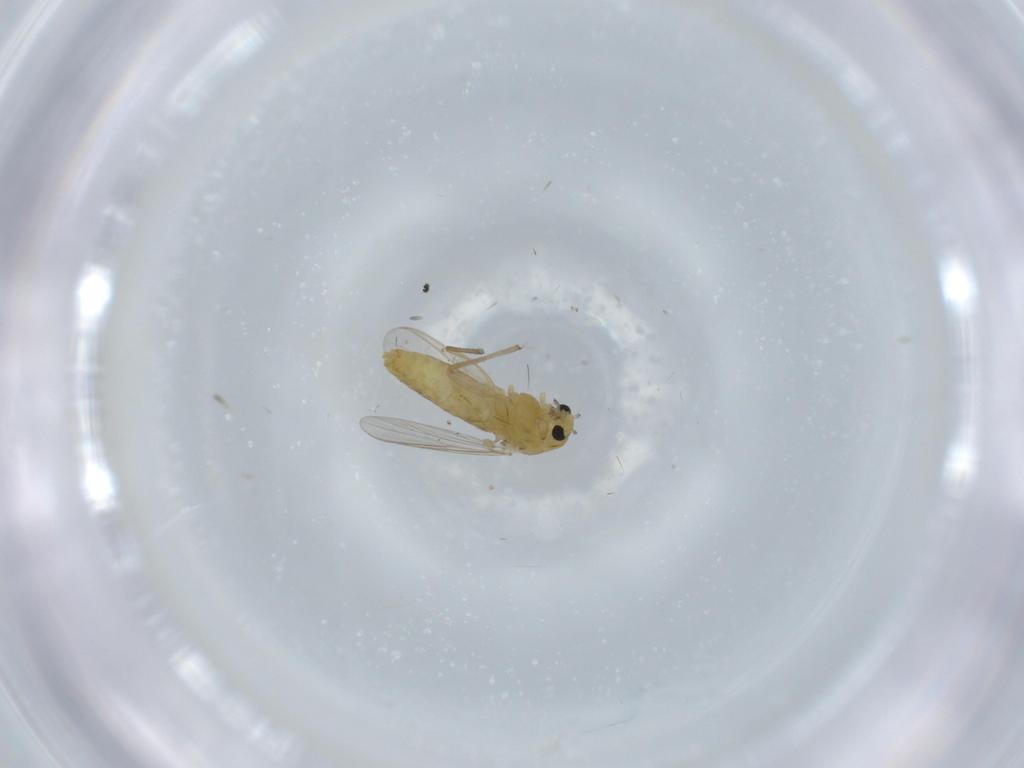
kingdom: Animalia
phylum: Arthropoda
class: Insecta
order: Diptera
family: Chironomidae
